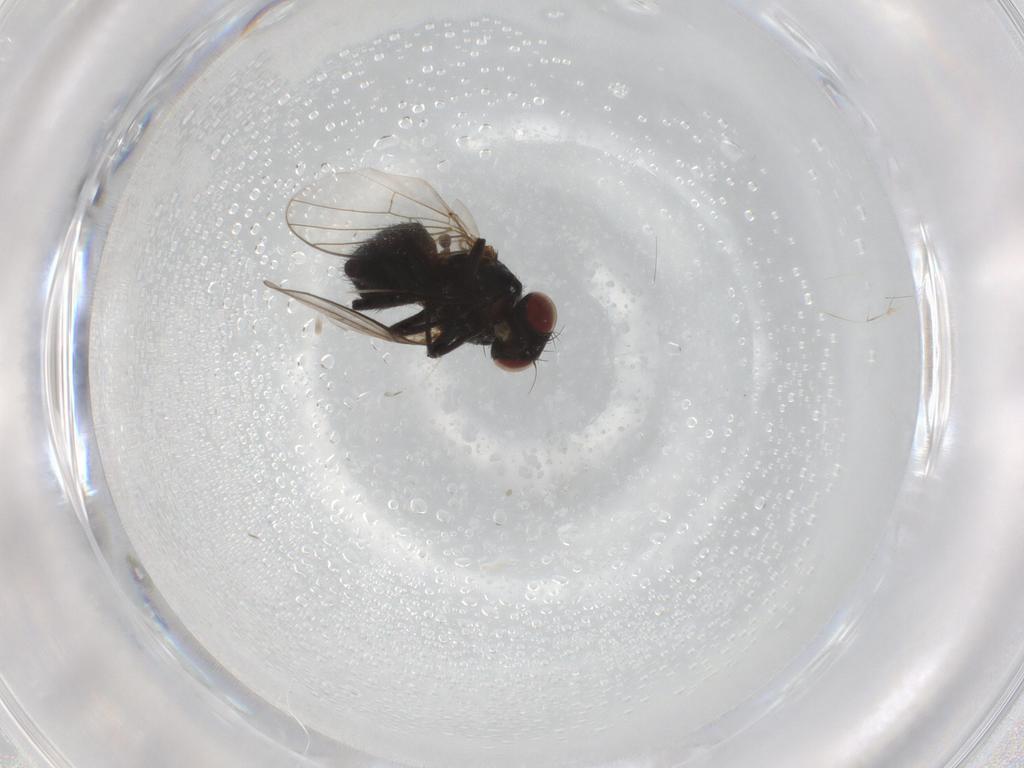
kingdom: Animalia
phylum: Arthropoda
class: Insecta
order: Diptera
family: Agromyzidae
